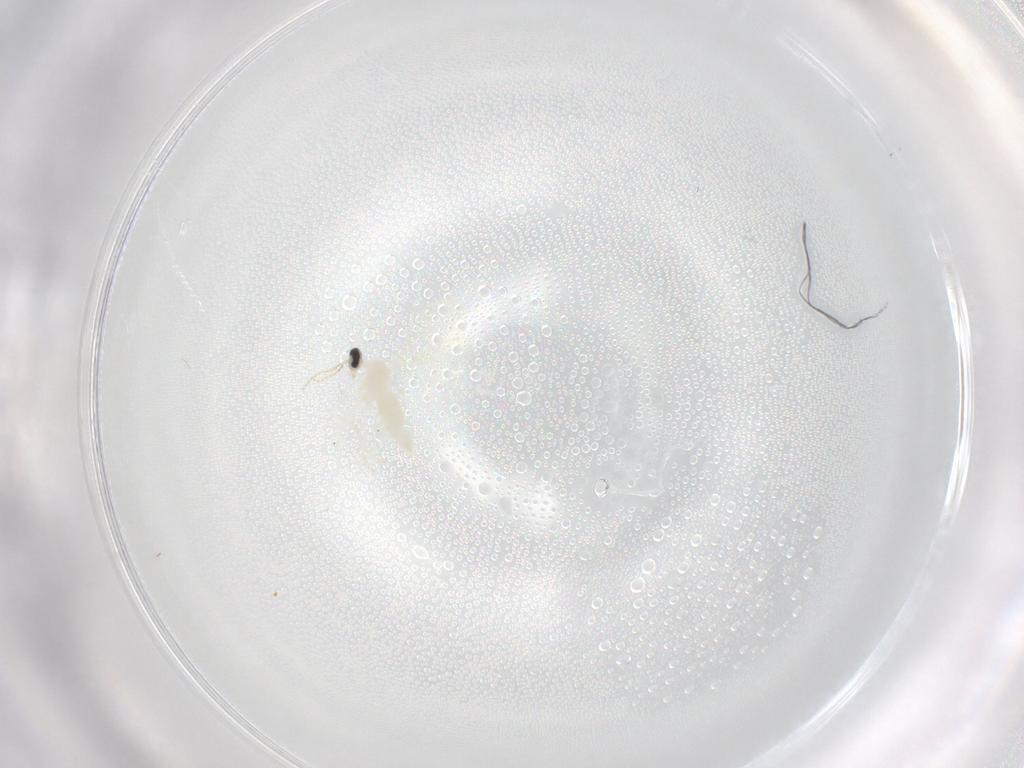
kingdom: Animalia
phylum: Arthropoda
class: Insecta
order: Diptera
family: Cecidomyiidae
